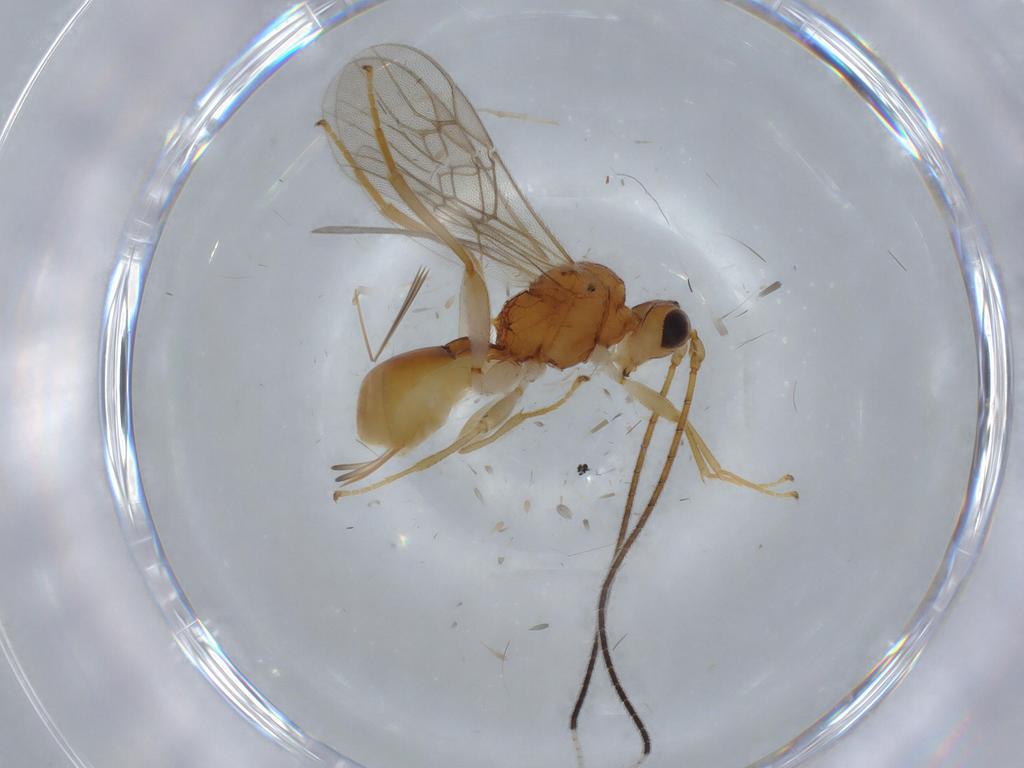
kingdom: Animalia
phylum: Arthropoda
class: Insecta
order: Hymenoptera
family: Braconidae
